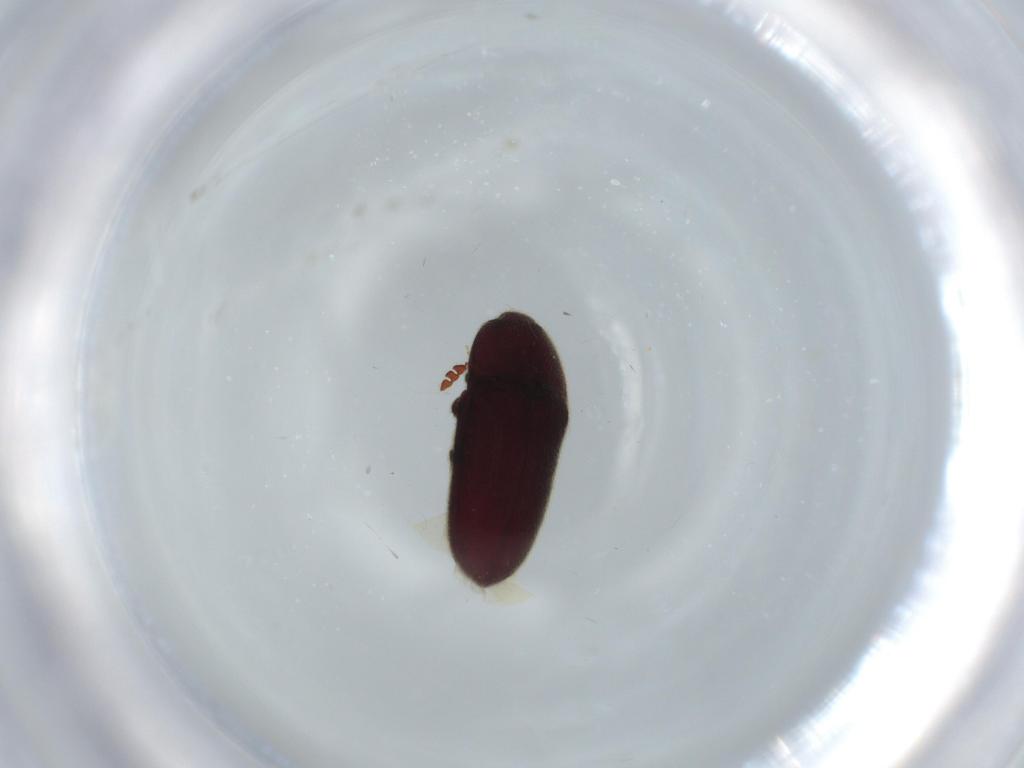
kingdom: Animalia
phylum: Arthropoda
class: Insecta
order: Coleoptera
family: Throscidae
